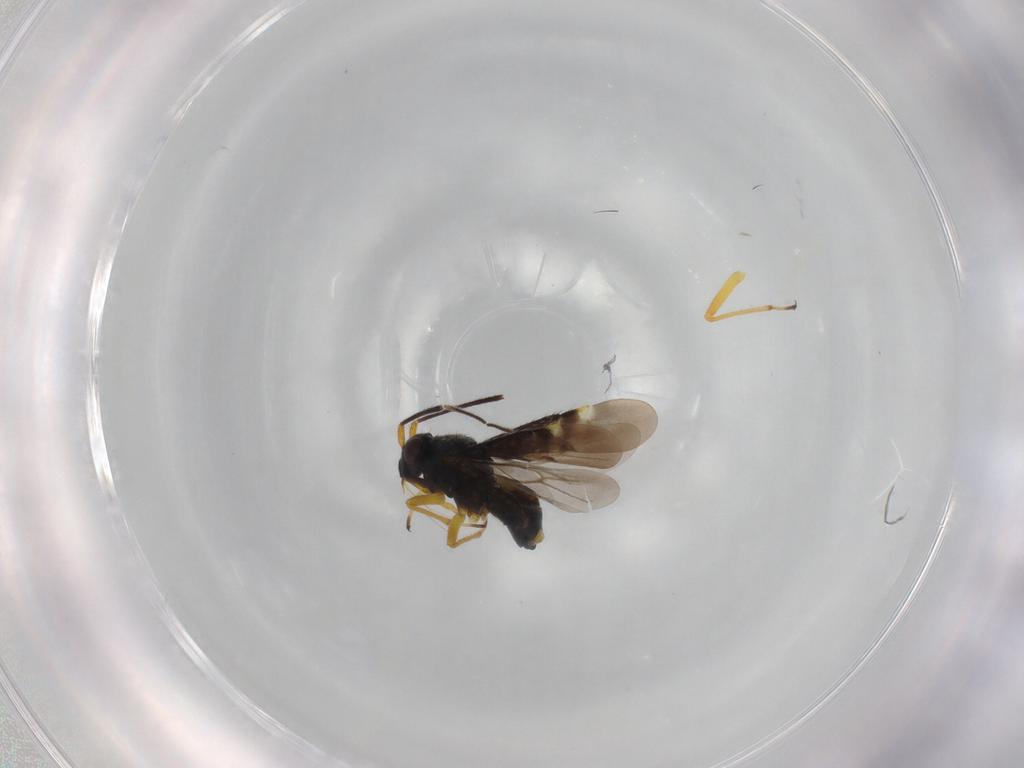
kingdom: Animalia
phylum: Arthropoda
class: Insecta
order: Hemiptera
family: Miridae
